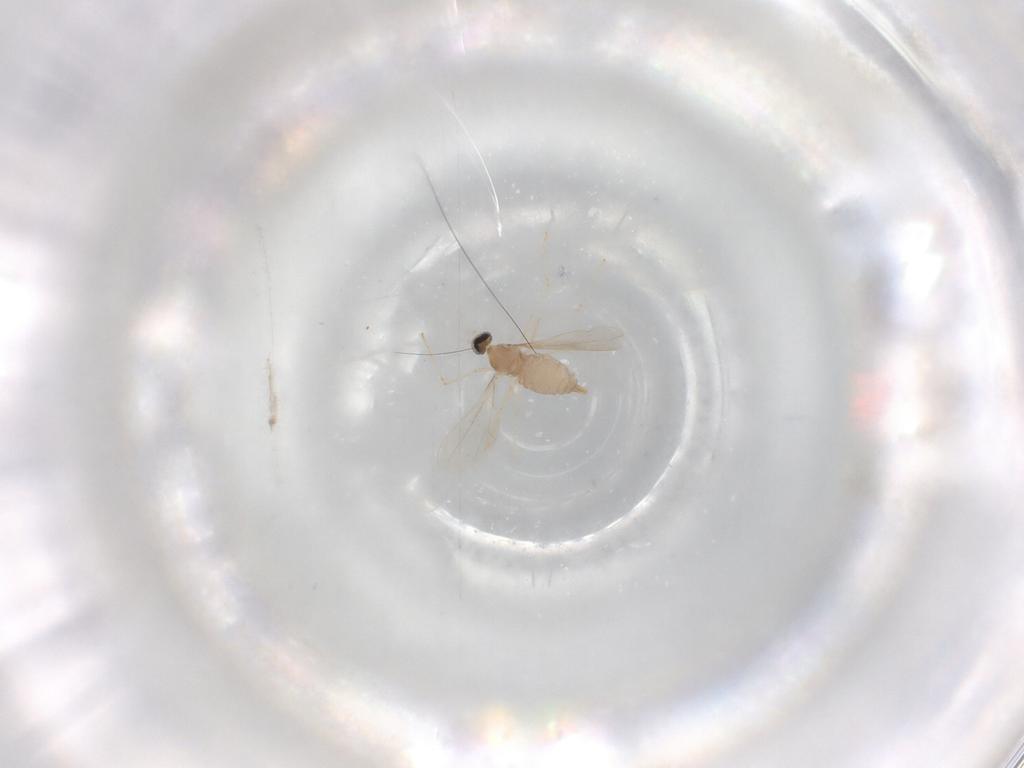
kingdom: Animalia
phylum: Arthropoda
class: Insecta
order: Diptera
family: Cecidomyiidae
